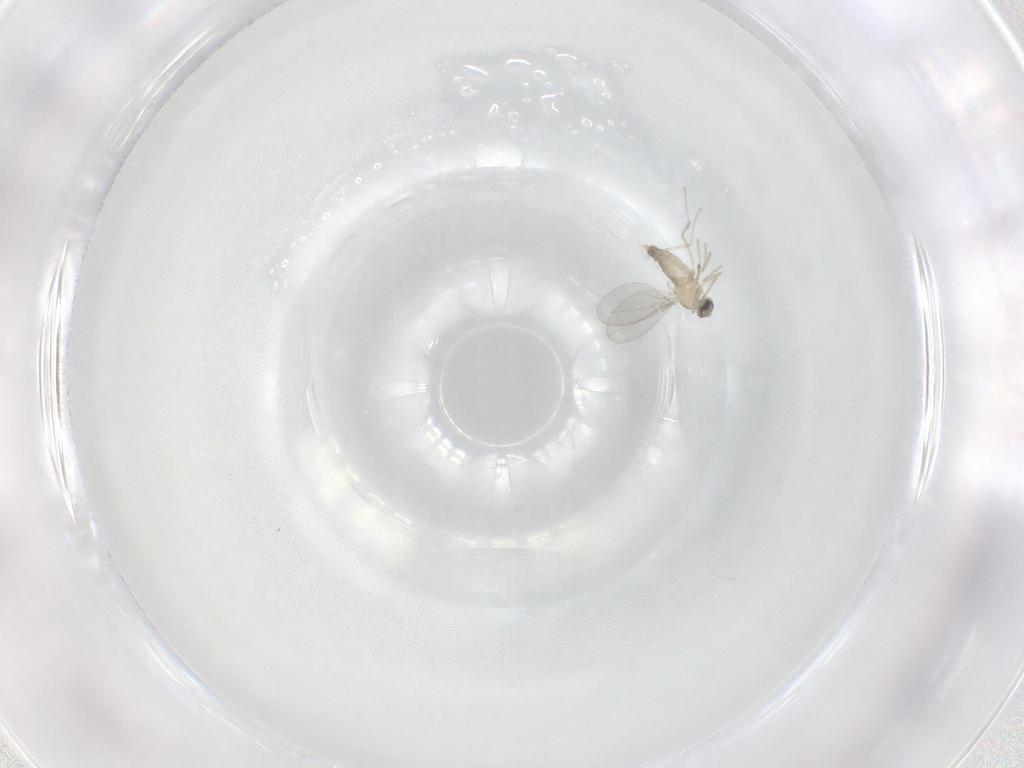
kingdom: Animalia
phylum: Arthropoda
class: Insecta
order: Diptera
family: Cecidomyiidae
